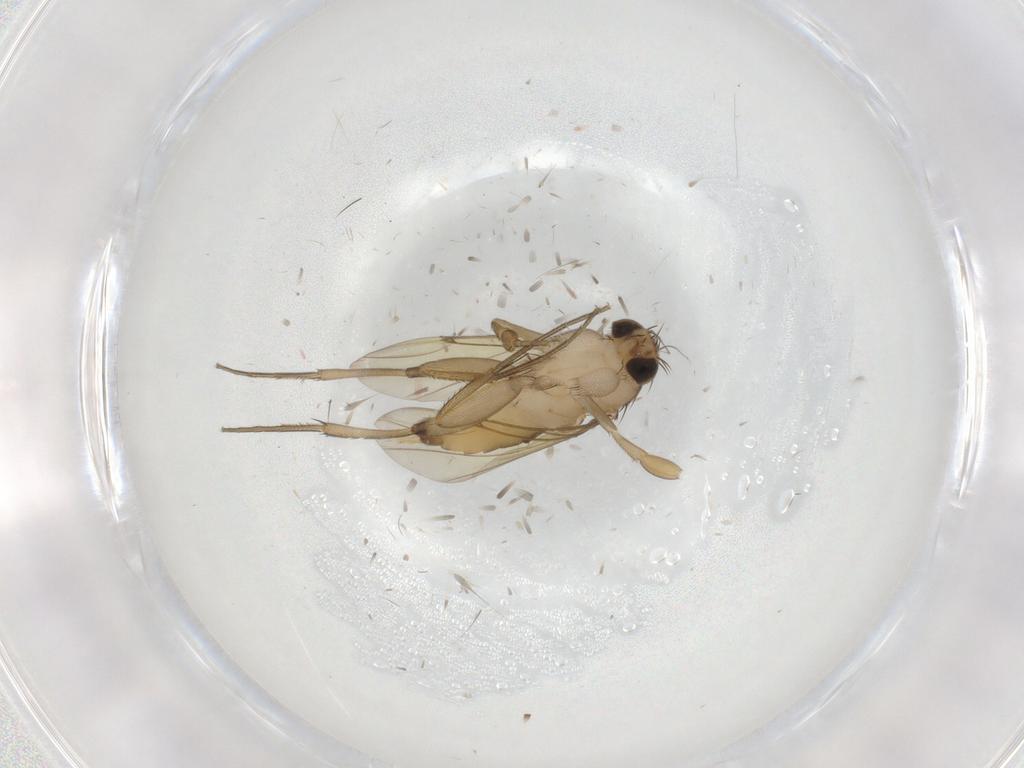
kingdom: Animalia
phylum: Arthropoda
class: Insecta
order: Diptera
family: Phoridae
